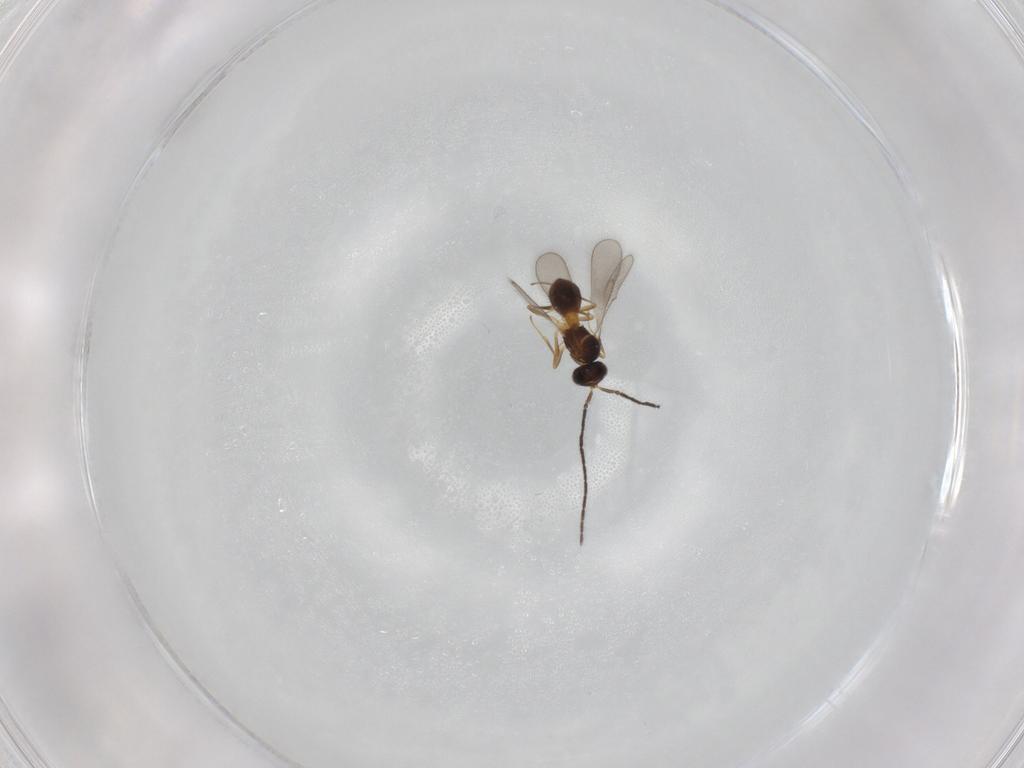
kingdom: Animalia
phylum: Arthropoda
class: Insecta
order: Hymenoptera
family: Scelionidae
